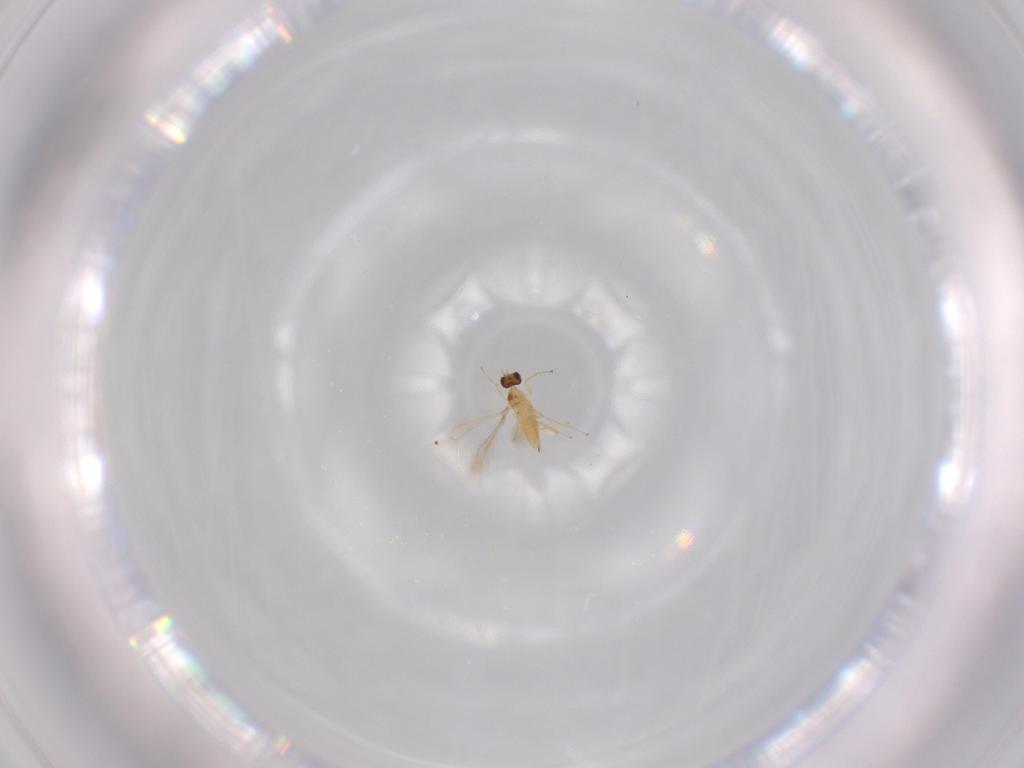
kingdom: Animalia
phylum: Arthropoda
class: Insecta
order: Hymenoptera
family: Mymaridae
